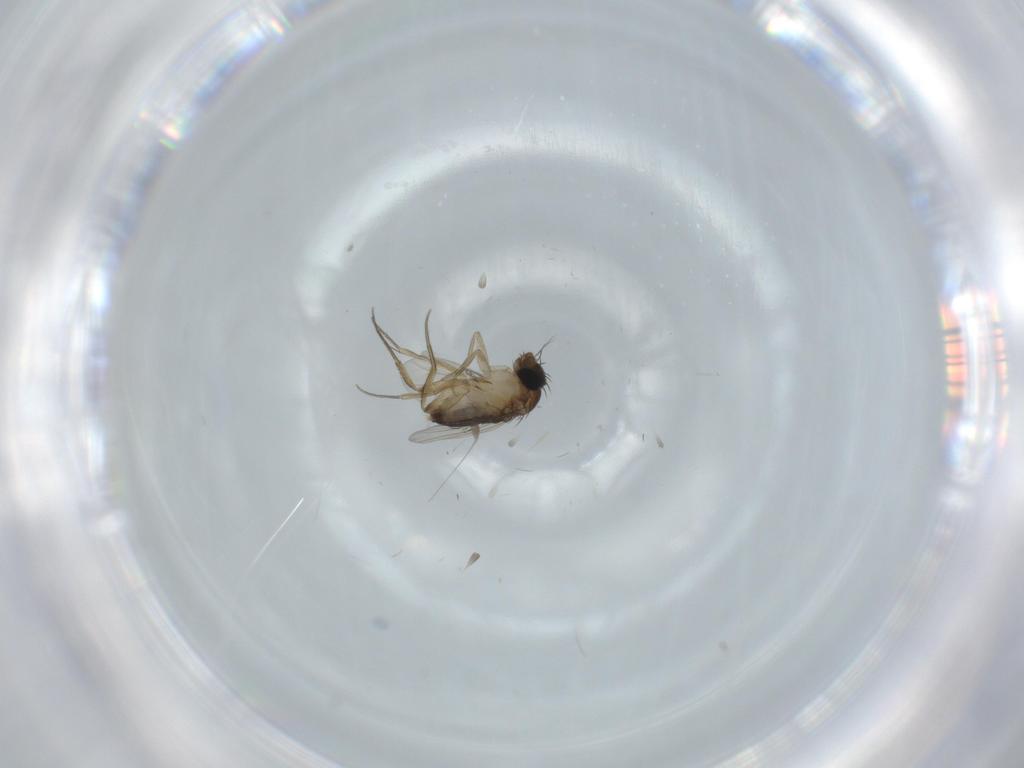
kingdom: Animalia
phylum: Arthropoda
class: Insecta
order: Diptera
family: Phoridae
